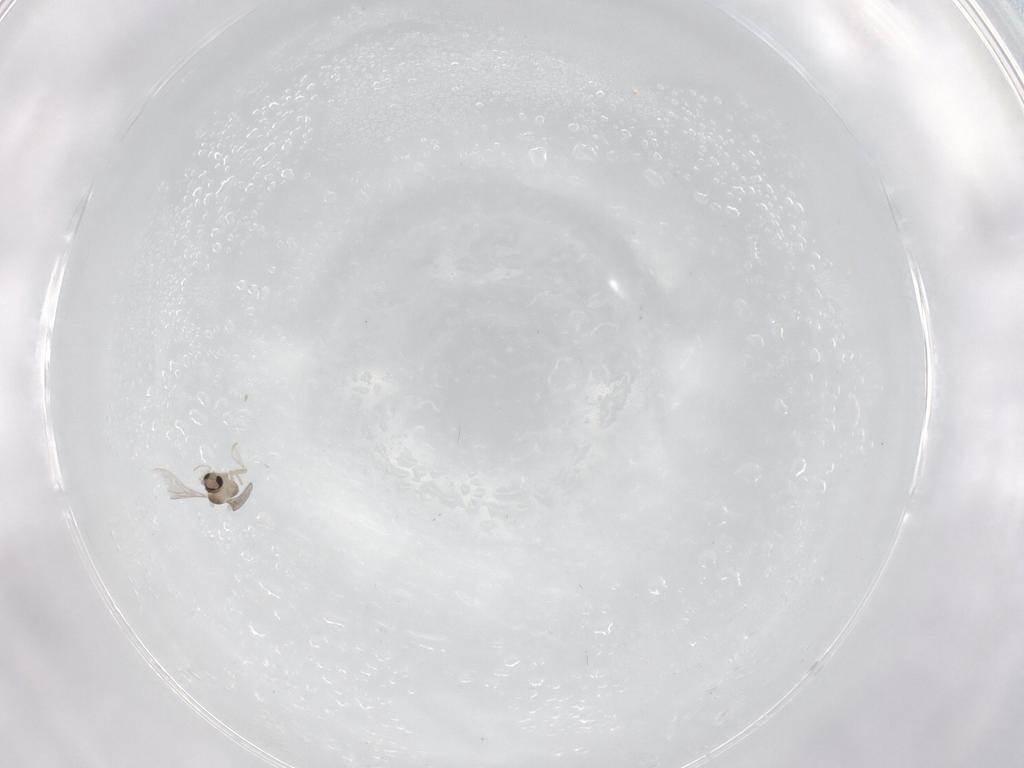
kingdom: Animalia
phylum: Arthropoda
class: Insecta
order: Diptera
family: Cecidomyiidae
